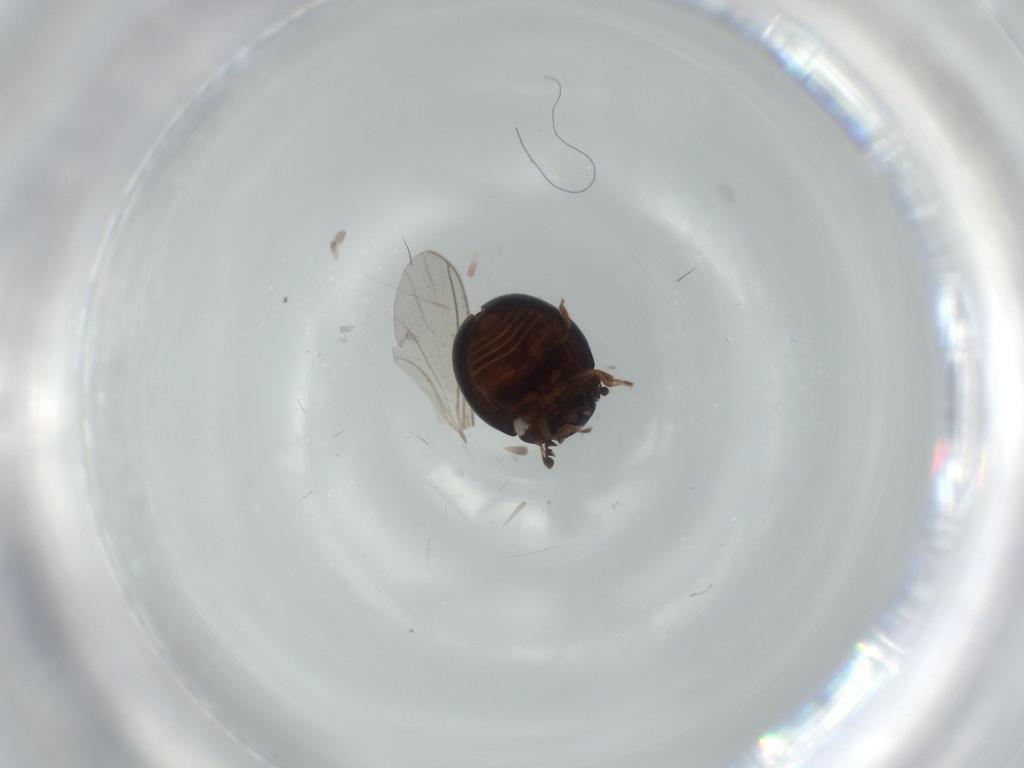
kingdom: Animalia
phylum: Arthropoda
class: Insecta
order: Coleoptera
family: Anamorphidae
